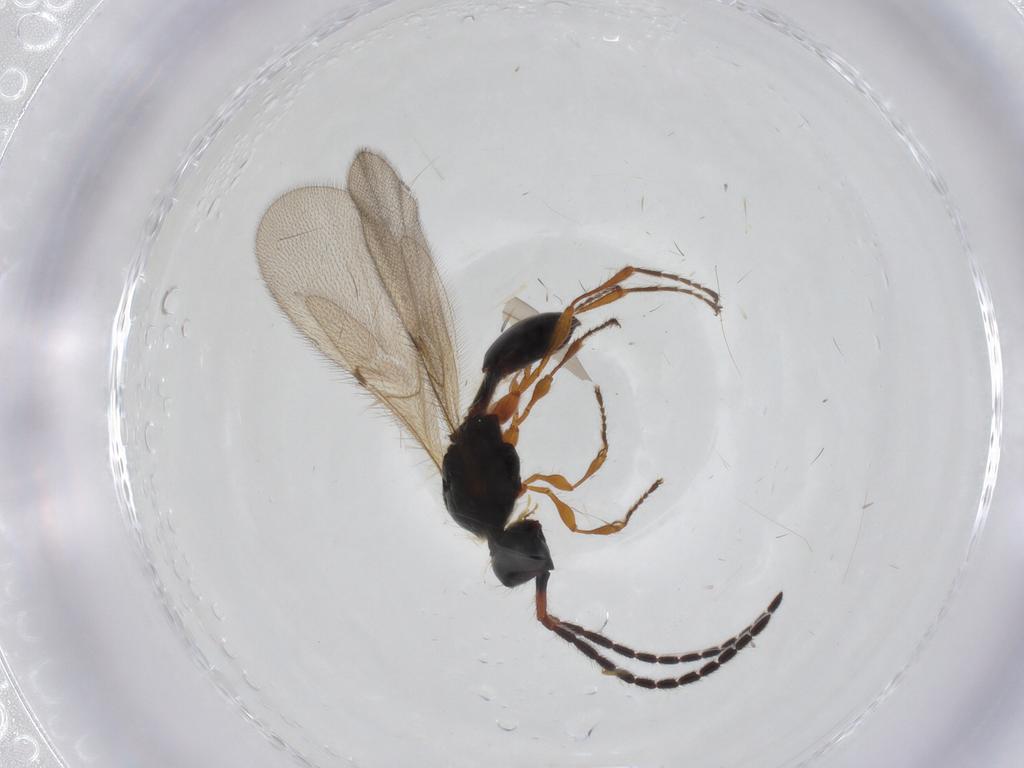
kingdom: Animalia
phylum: Arthropoda
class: Insecta
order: Hymenoptera
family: Diapriidae
